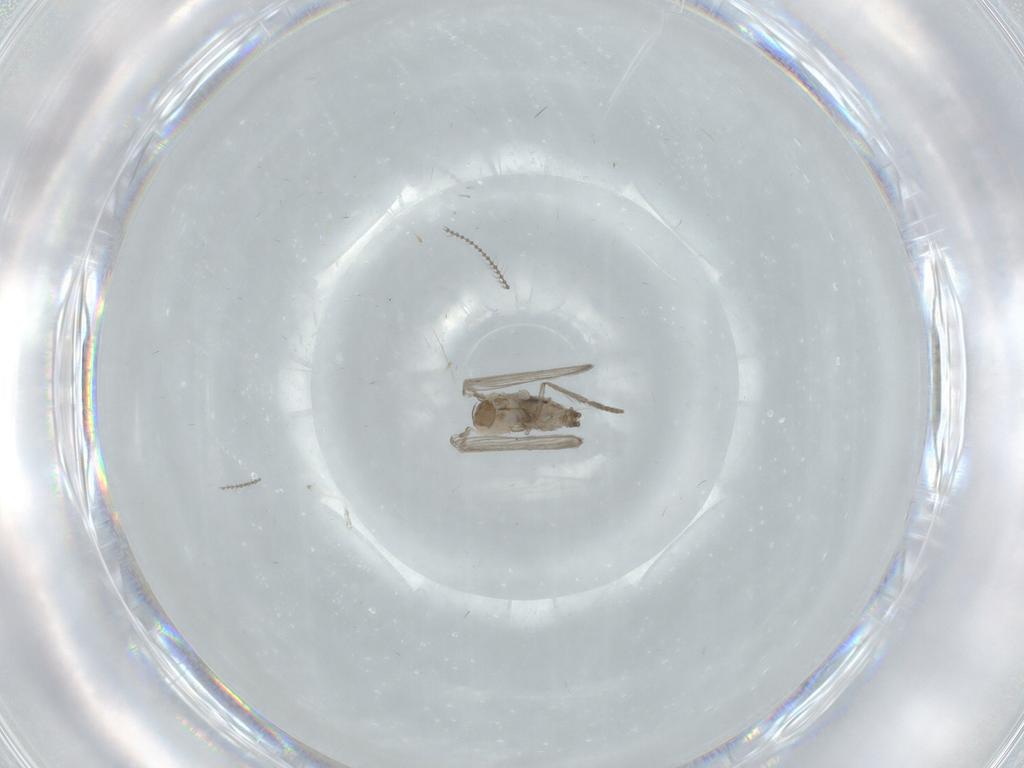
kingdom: Animalia
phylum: Arthropoda
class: Insecta
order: Diptera
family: Psychodidae
